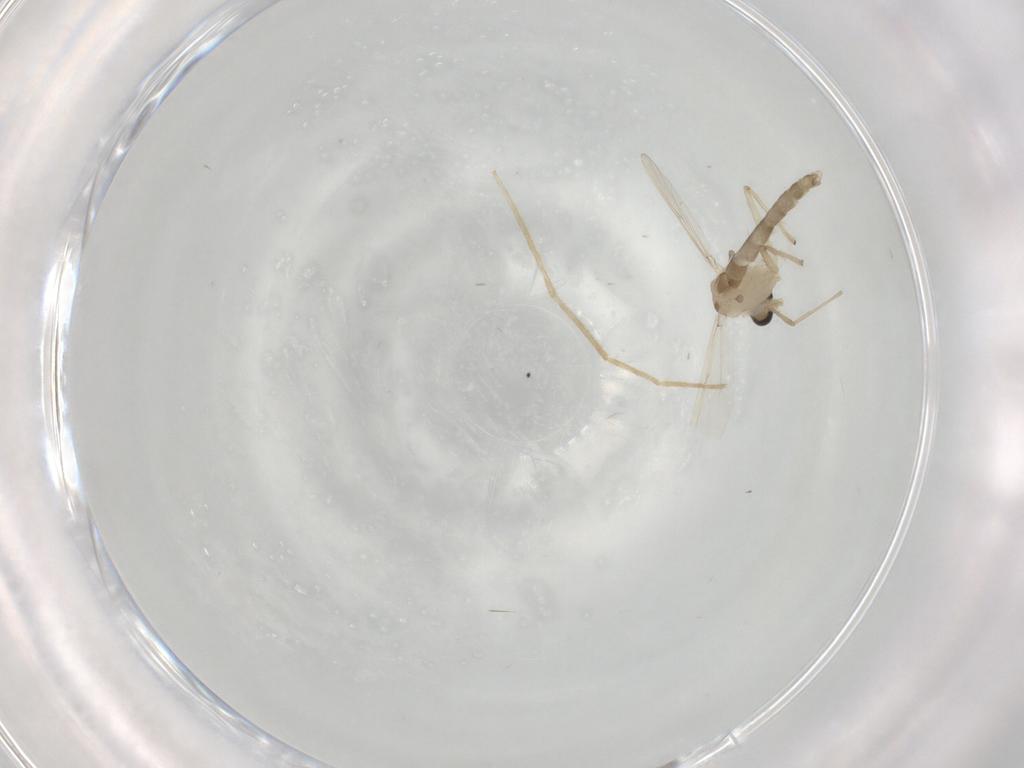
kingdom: Animalia
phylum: Arthropoda
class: Insecta
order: Diptera
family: Chironomidae
